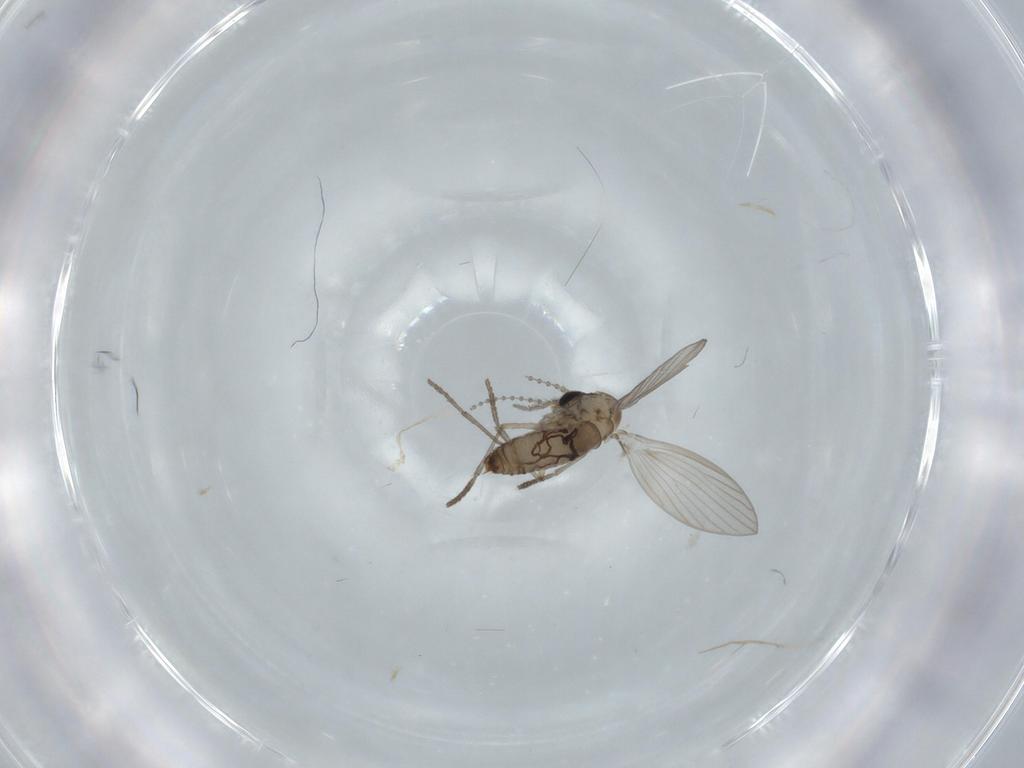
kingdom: Animalia
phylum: Arthropoda
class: Insecta
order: Diptera
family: Psychodidae
